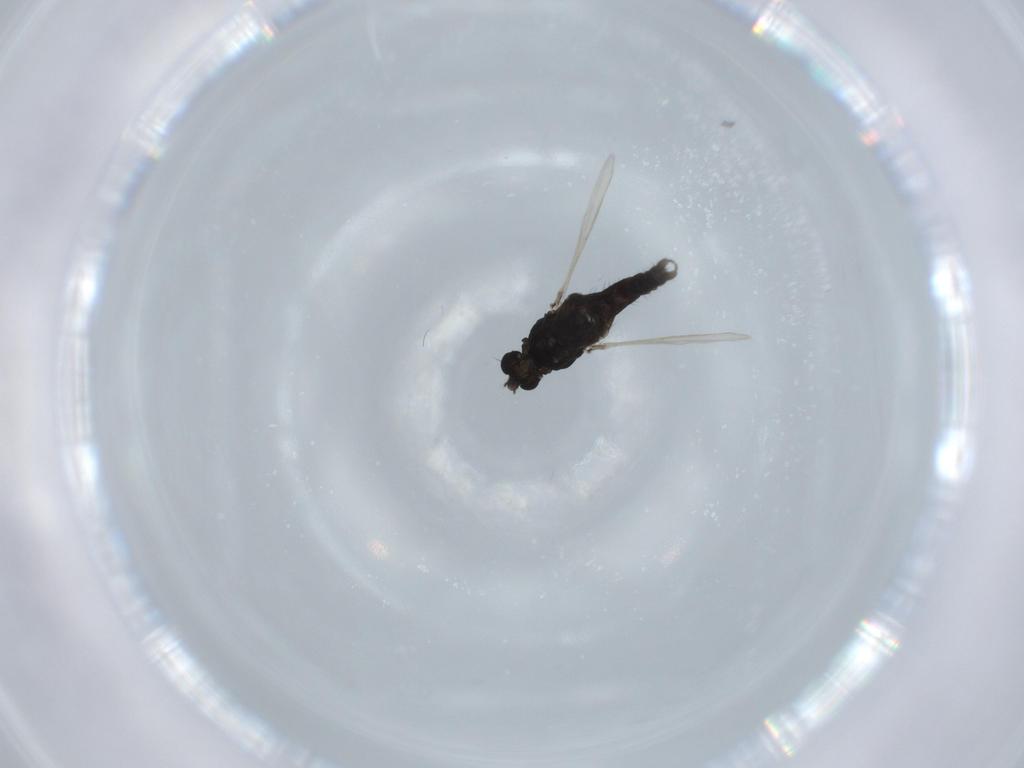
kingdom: Animalia
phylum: Arthropoda
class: Insecta
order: Diptera
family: Chironomidae
